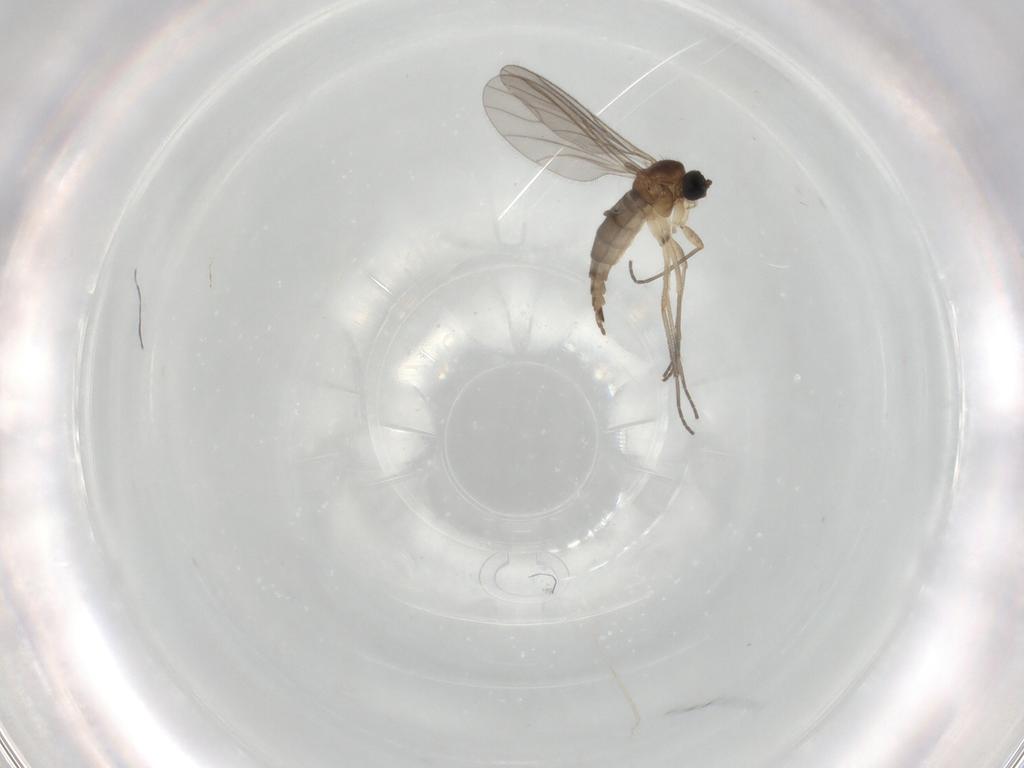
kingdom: Animalia
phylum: Arthropoda
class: Insecta
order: Diptera
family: Sciaridae
